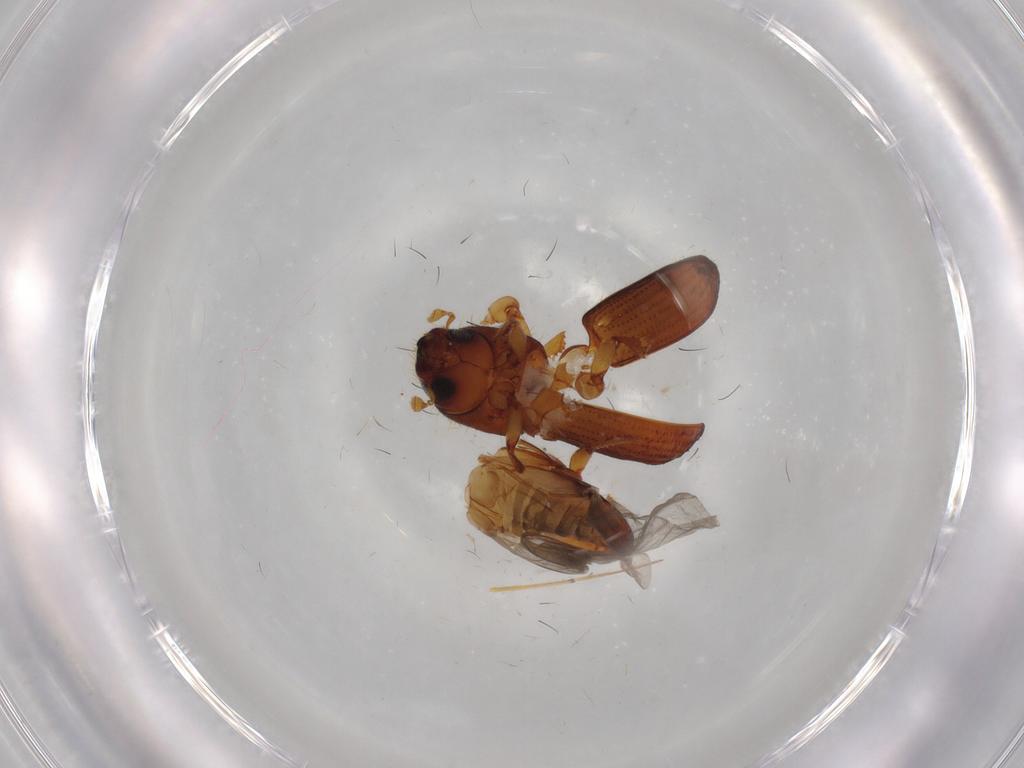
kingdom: Animalia
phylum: Arthropoda
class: Insecta
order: Coleoptera
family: Curculionidae
